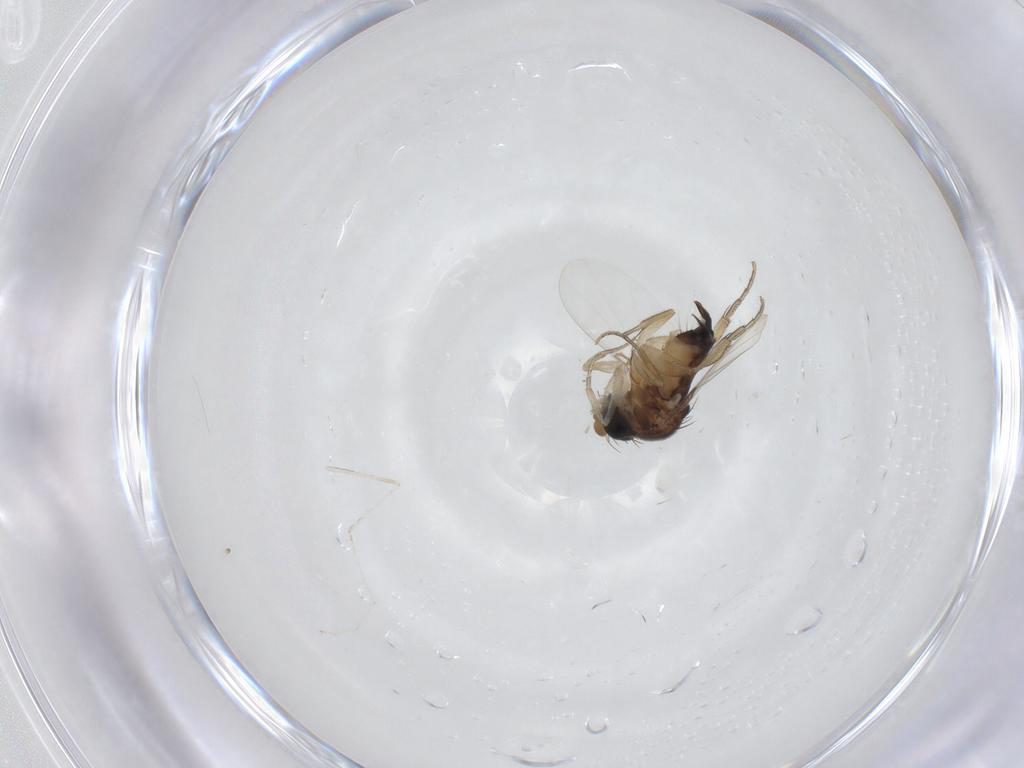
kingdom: Animalia
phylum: Arthropoda
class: Insecta
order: Diptera
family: Cecidomyiidae
